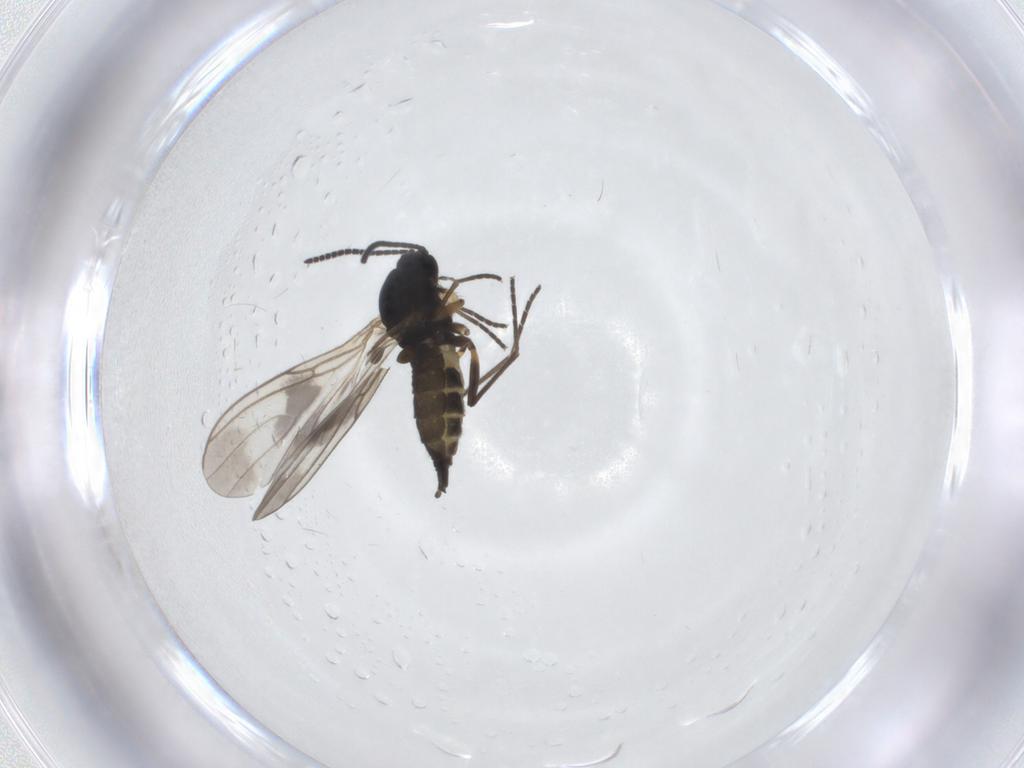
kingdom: Animalia
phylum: Arthropoda
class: Insecta
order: Diptera
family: Sciaridae
